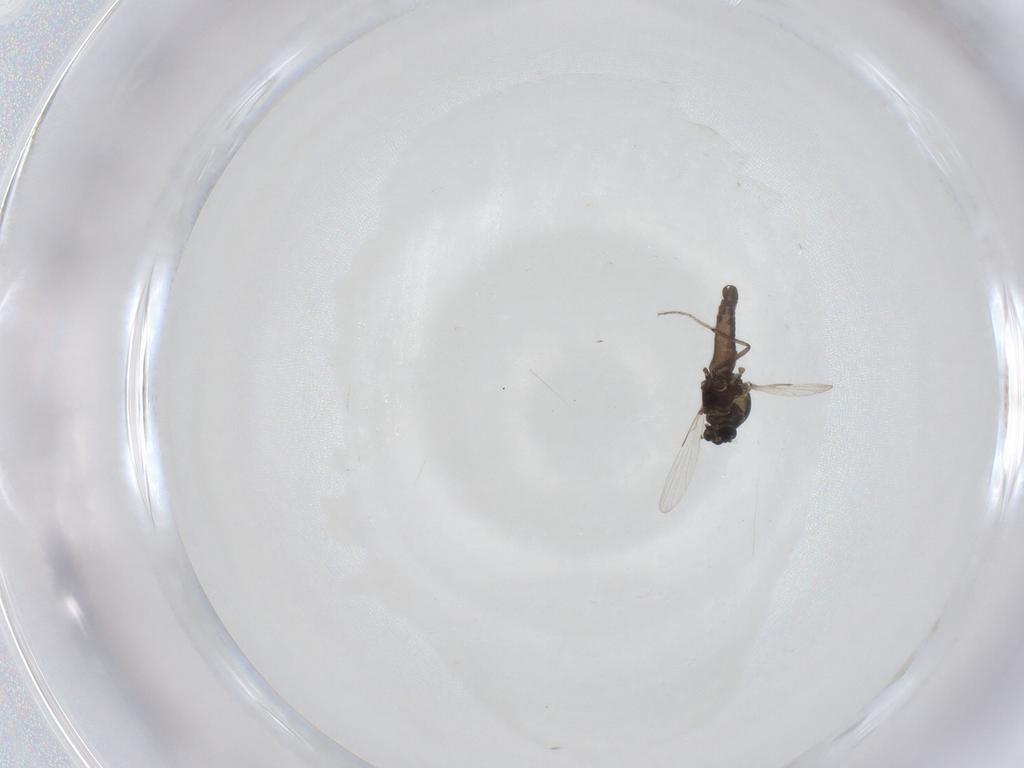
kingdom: Animalia
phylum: Arthropoda
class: Insecta
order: Diptera
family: Ceratopogonidae
